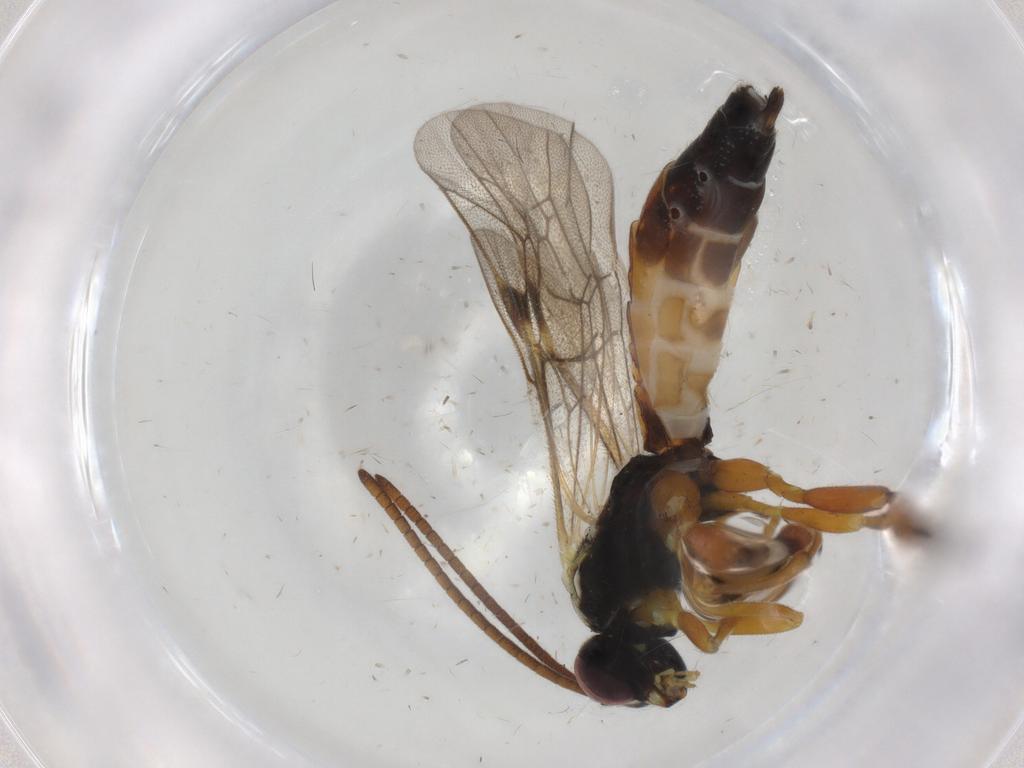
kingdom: Animalia
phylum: Arthropoda
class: Insecta
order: Hymenoptera
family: Ichneumonidae
